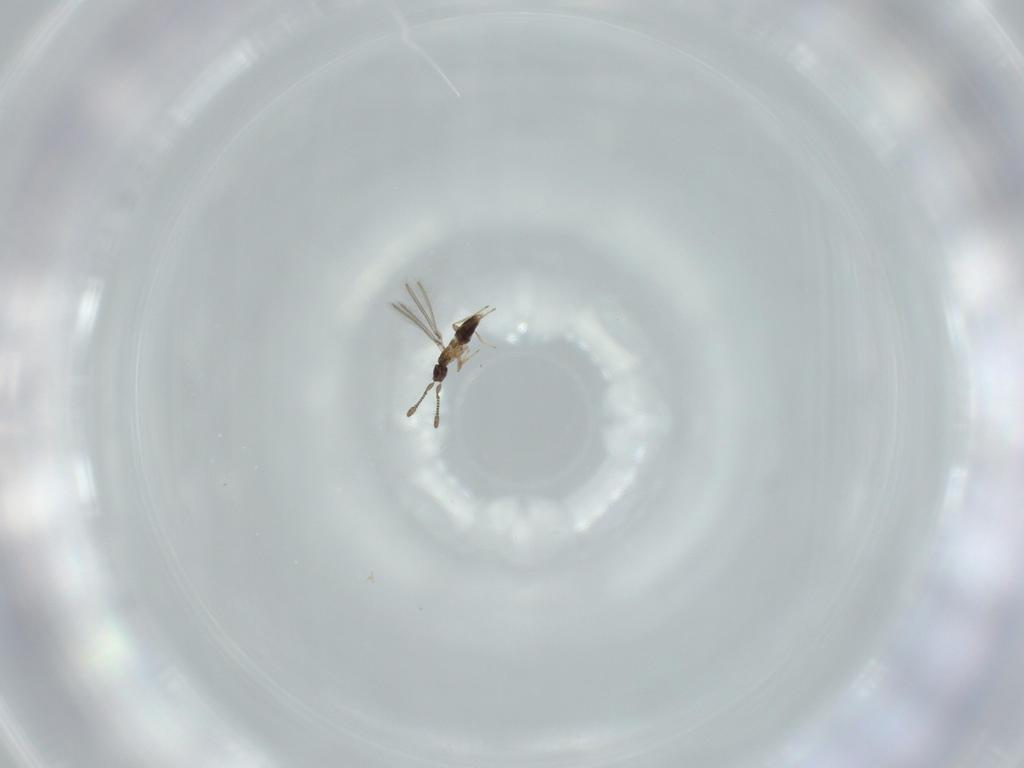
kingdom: Animalia
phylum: Arthropoda
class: Insecta
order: Hymenoptera
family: Mymaridae
